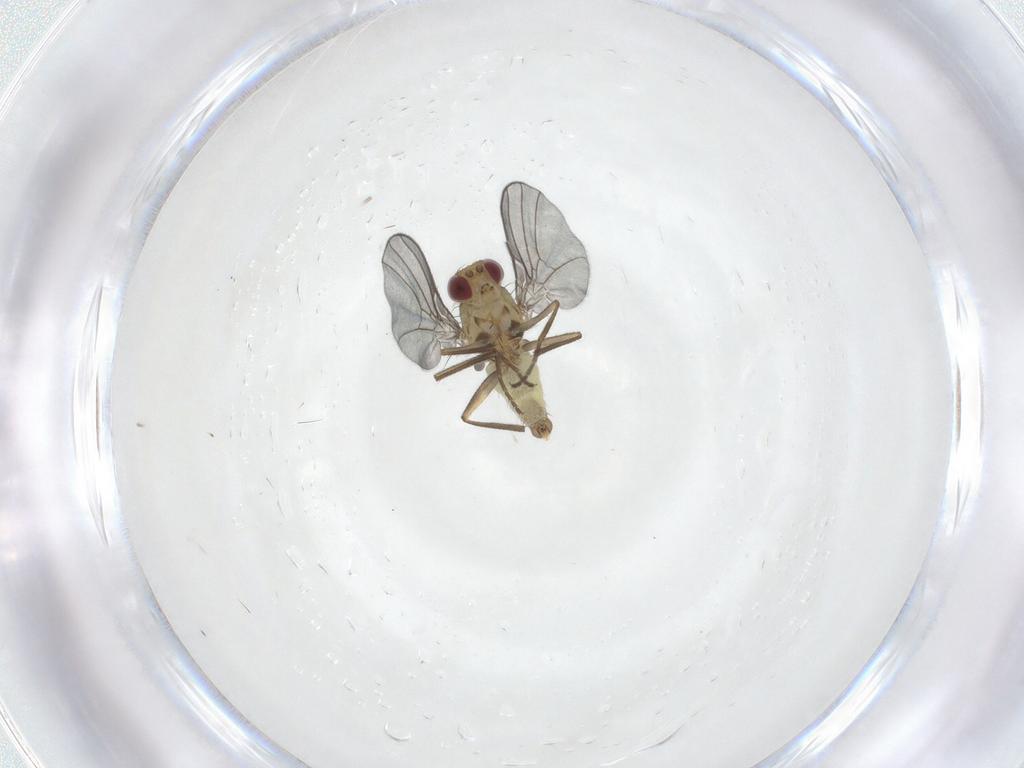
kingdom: Animalia
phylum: Arthropoda
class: Insecta
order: Diptera
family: Agromyzidae
